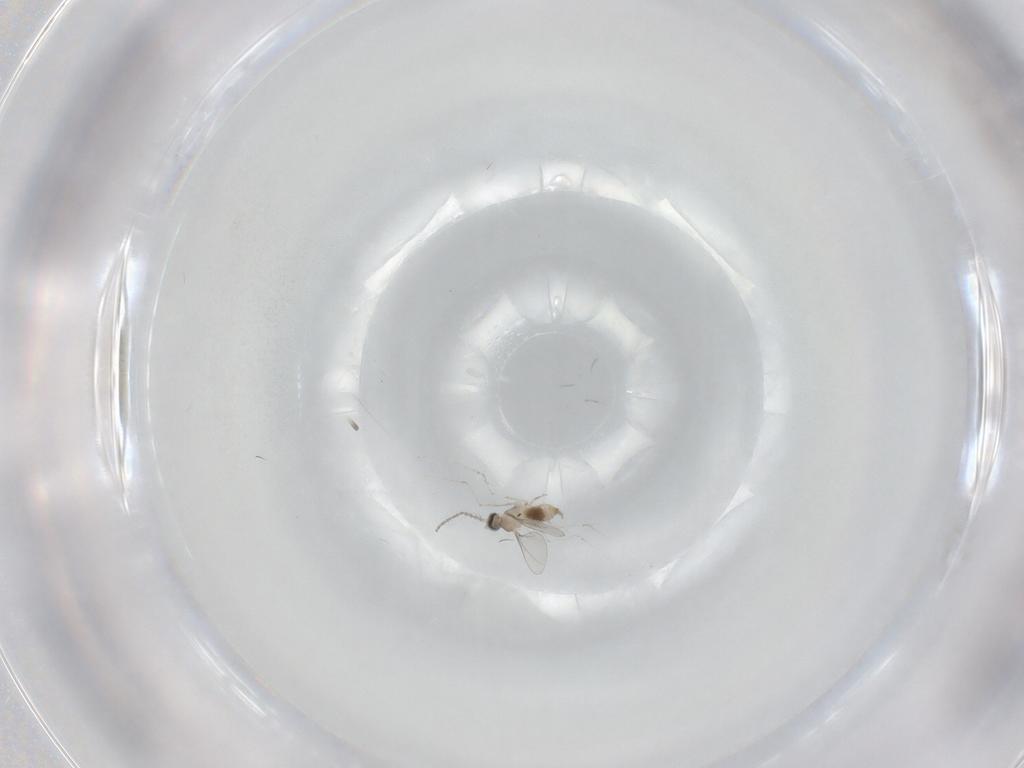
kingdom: Animalia
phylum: Arthropoda
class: Insecta
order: Diptera
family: Cecidomyiidae
